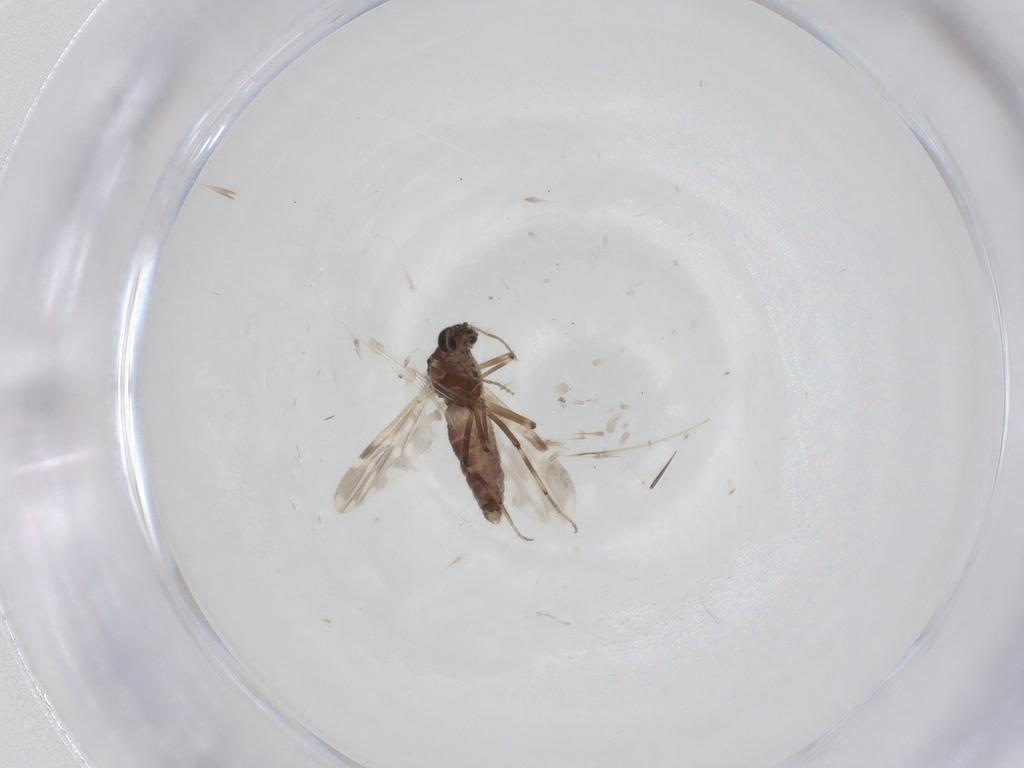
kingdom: Animalia
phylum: Arthropoda
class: Insecta
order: Diptera
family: Ceratopogonidae
